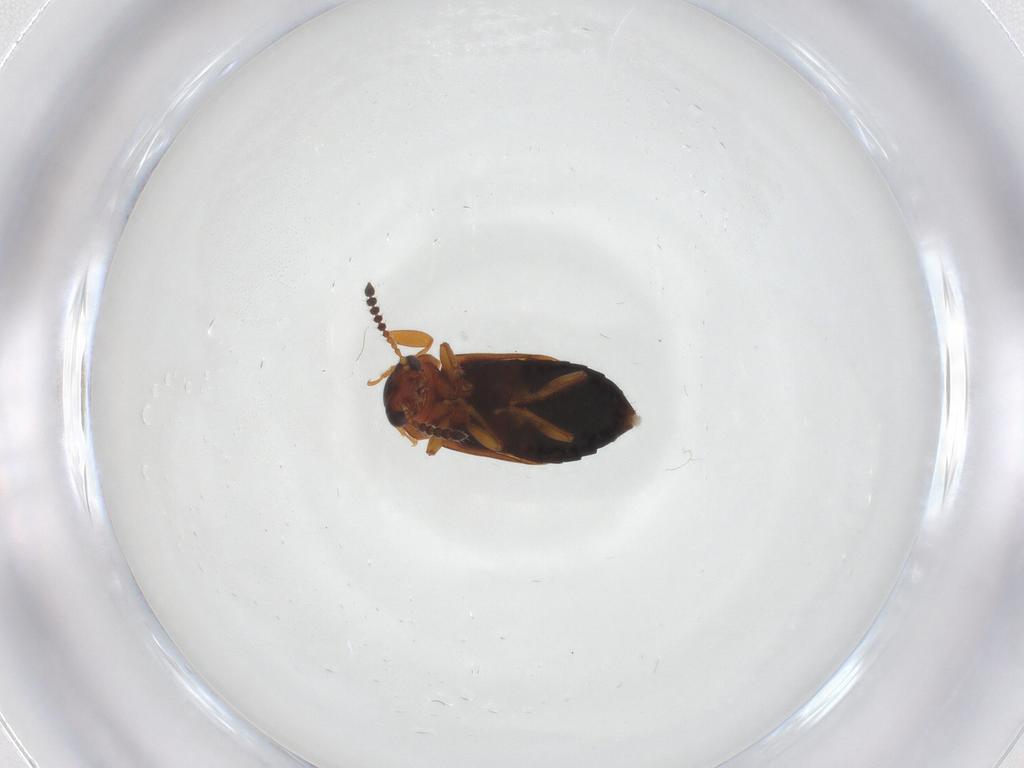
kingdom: Animalia
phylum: Arthropoda
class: Insecta
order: Coleoptera
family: Staphylinidae
